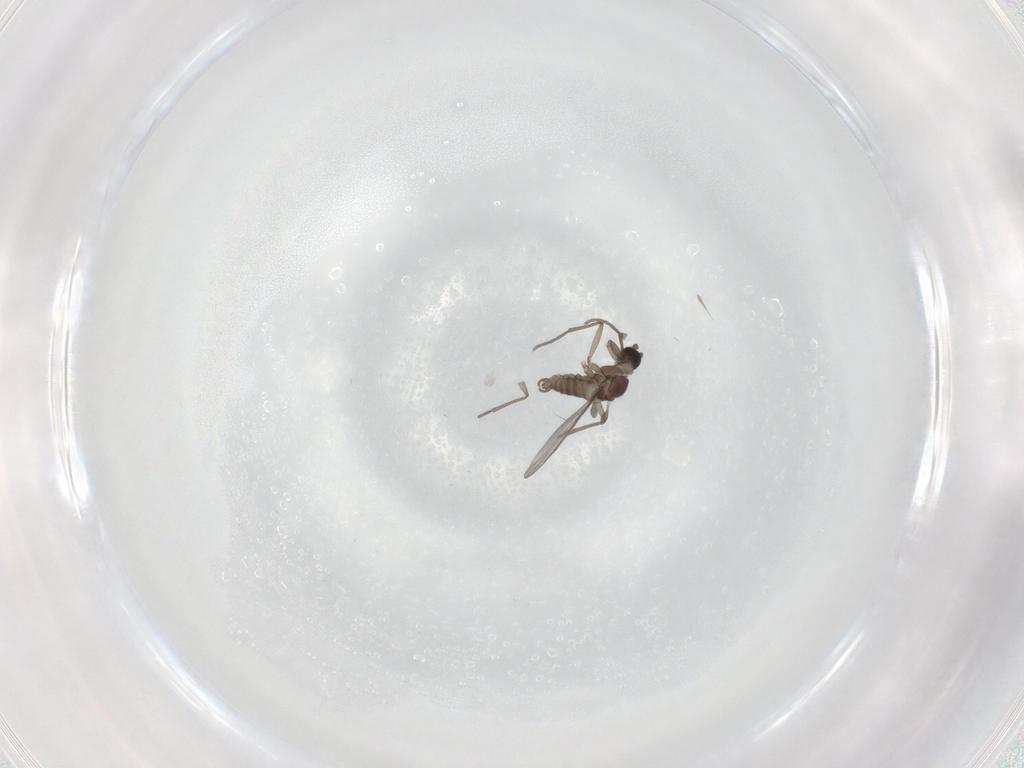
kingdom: Animalia
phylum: Arthropoda
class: Insecta
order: Diptera
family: Sciaridae
